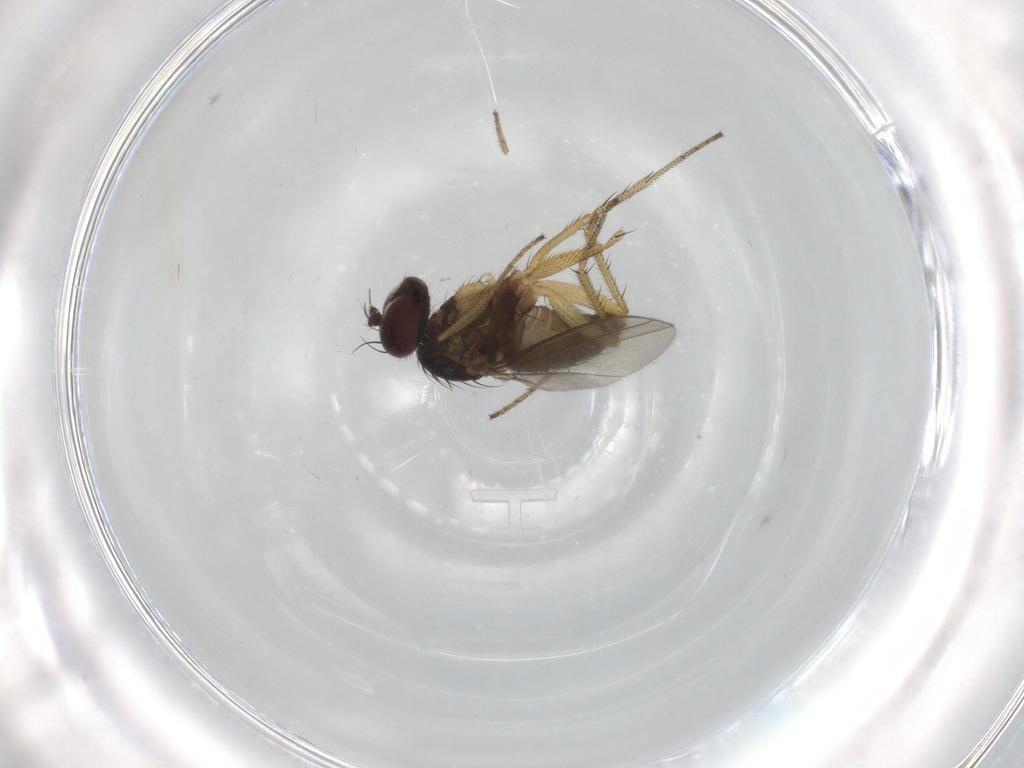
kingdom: Animalia
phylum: Arthropoda
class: Insecta
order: Diptera
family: Dolichopodidae
